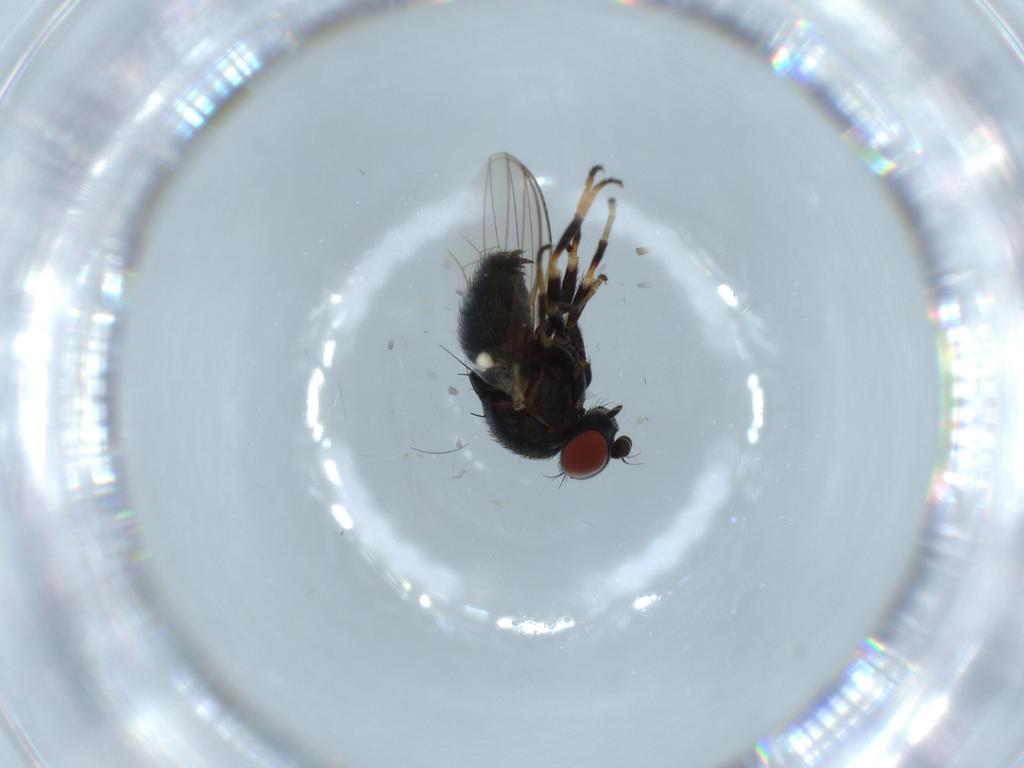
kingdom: Animalia
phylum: Arthropoda
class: Insecta
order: Diptera
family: Chamaemyiidae
